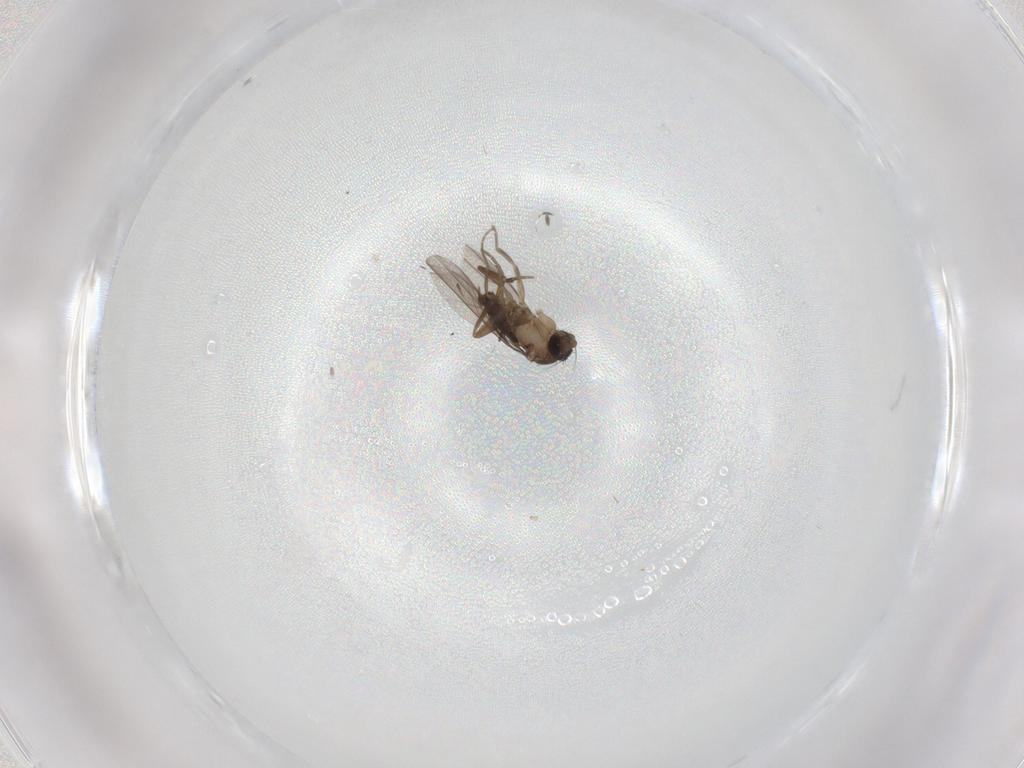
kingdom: Animalia
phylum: Arthropoda
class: Insecta
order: Diptera
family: Phoridae
